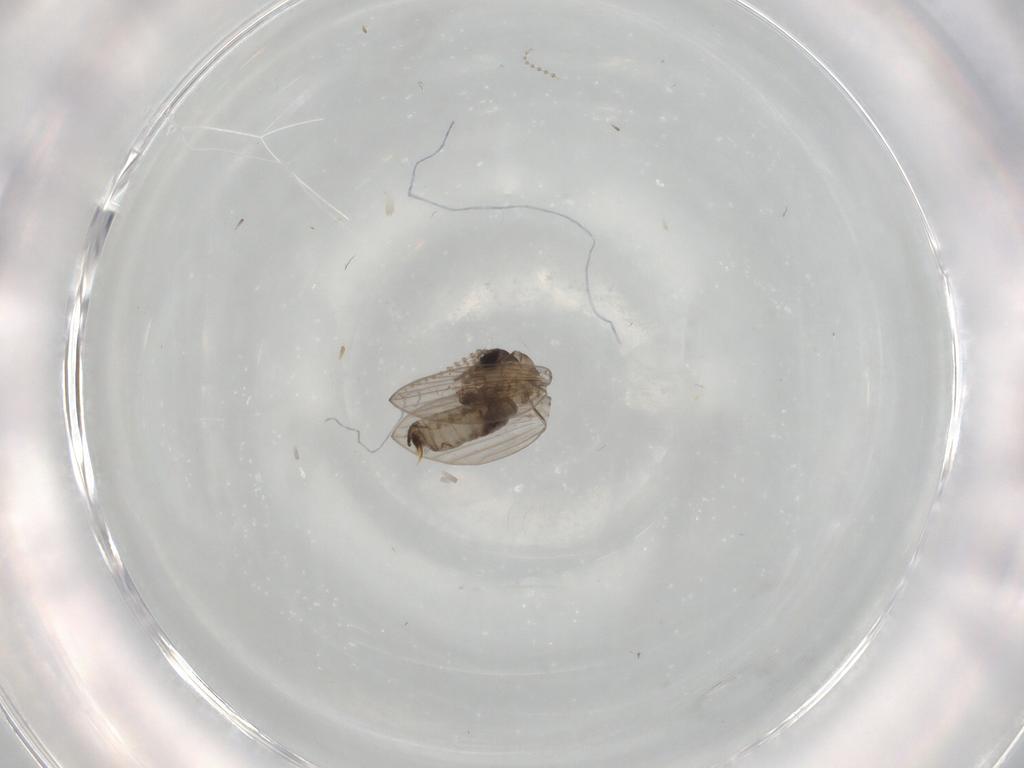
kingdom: Animalia
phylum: Arthropoda
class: Insecta
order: Diptera
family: Psychodidae
